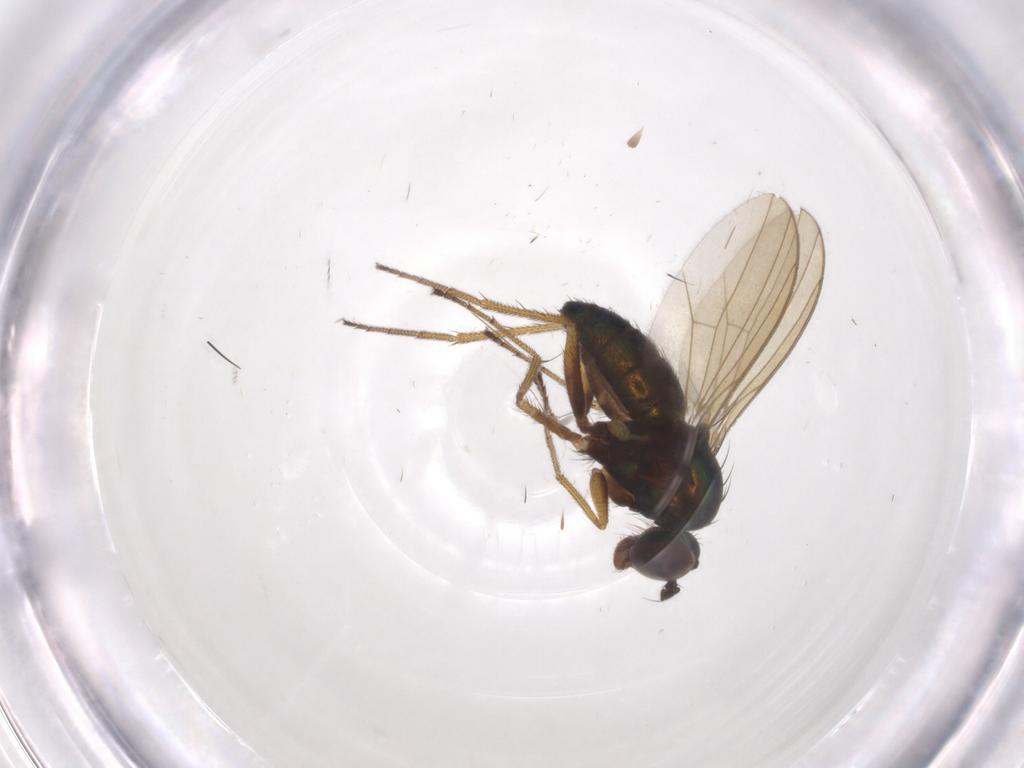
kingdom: Animalia
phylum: Arthropoda
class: Insecta
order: Diptera
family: Dolichopodidae
